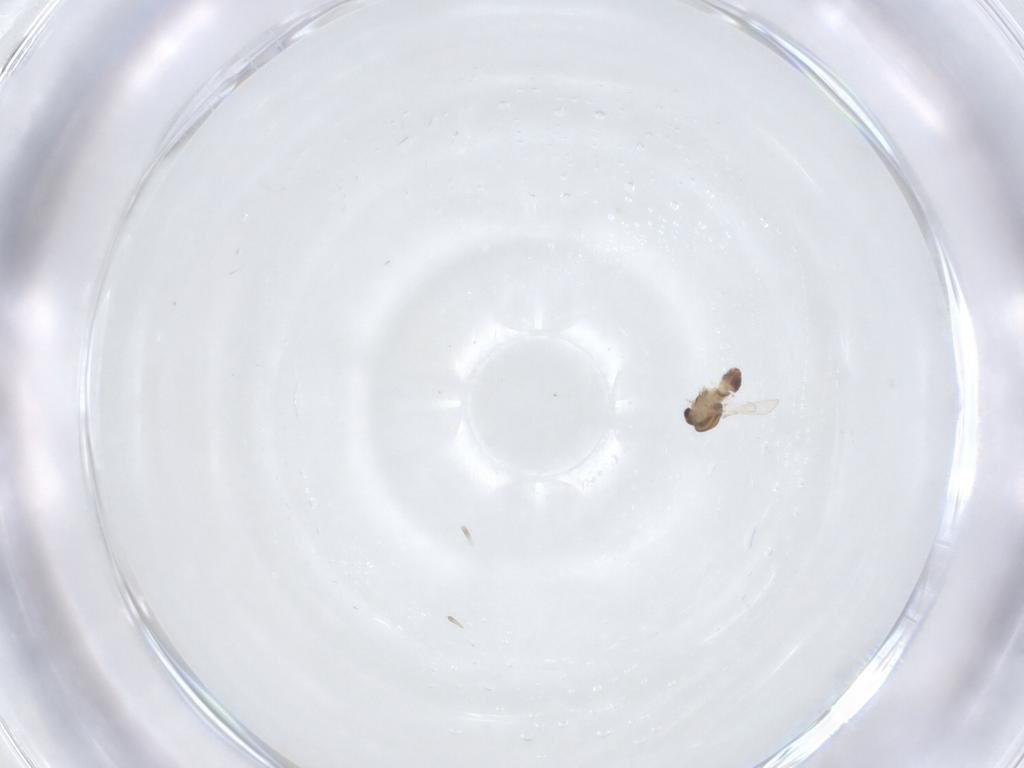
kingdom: Animalia
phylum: Arthropoda
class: Insecta
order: Diptera
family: Chironomidae
